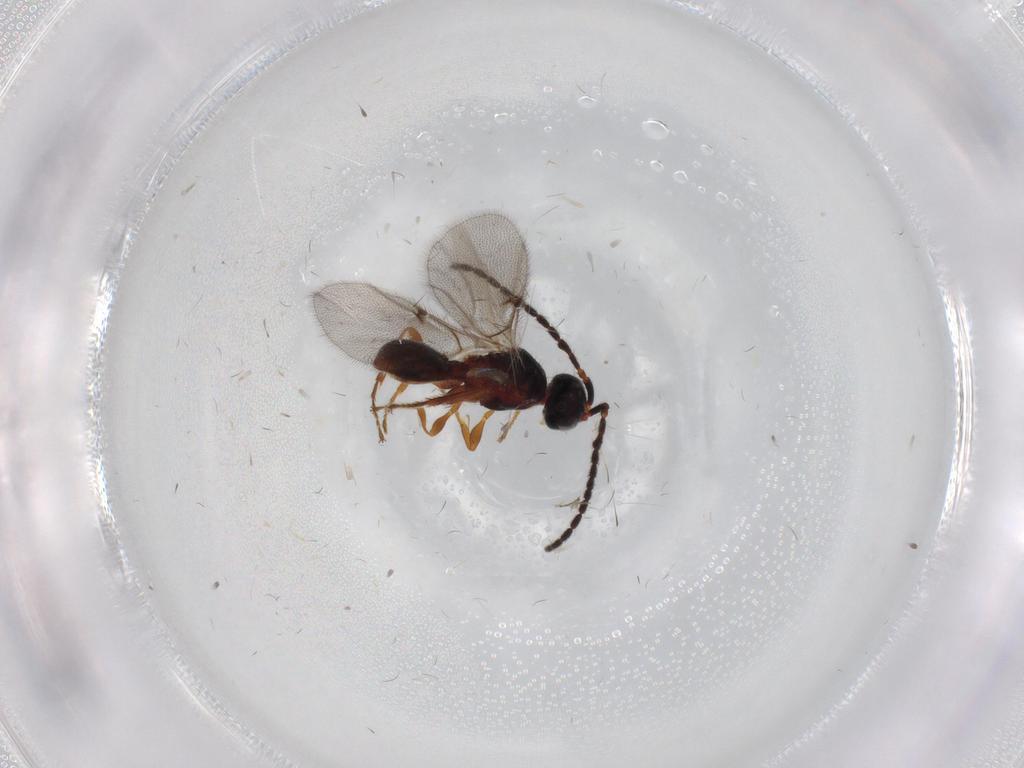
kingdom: Animalia
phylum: Arthropoda
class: Insecta
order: Hymenoptera
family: Diapriidae
